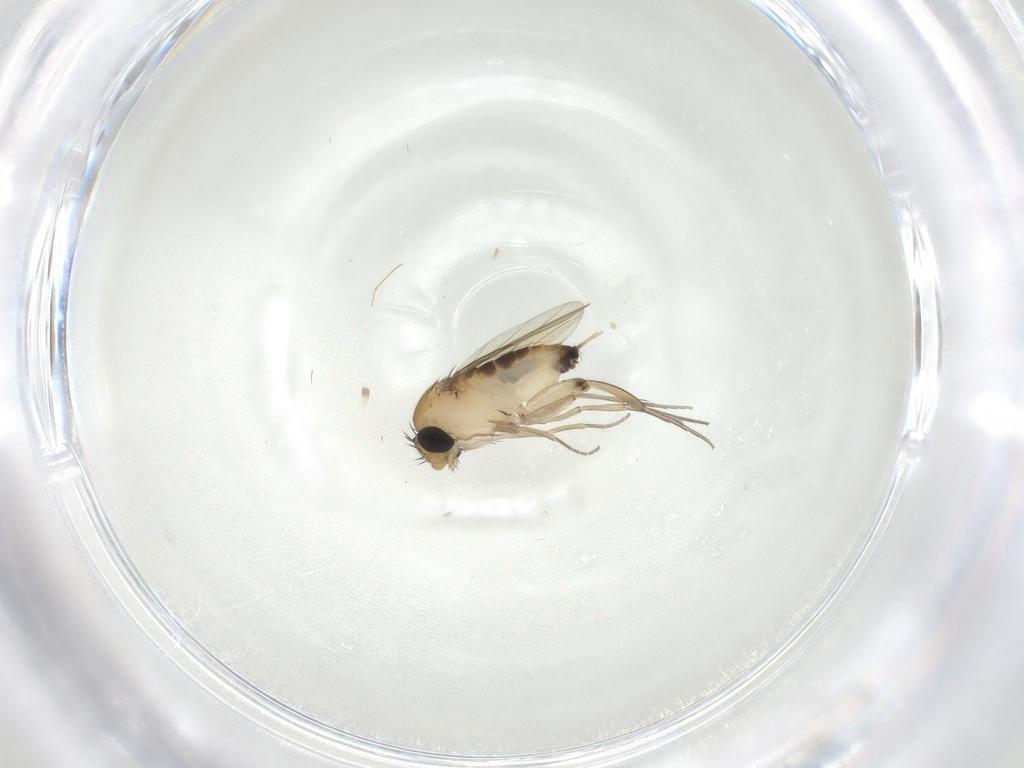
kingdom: Animalia
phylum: Arthropoda
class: Insecta
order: Diptera
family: Phoridae
